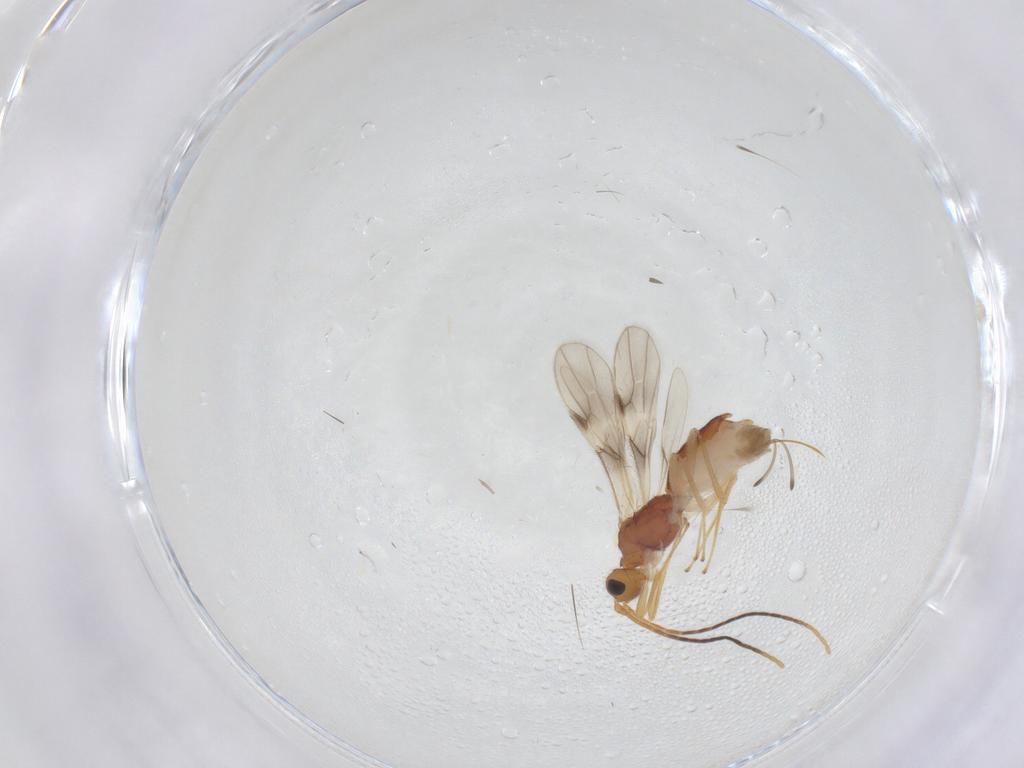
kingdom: Animalia
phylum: Arthropoda
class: Insecta
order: Hymenoptera
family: Braconidae
